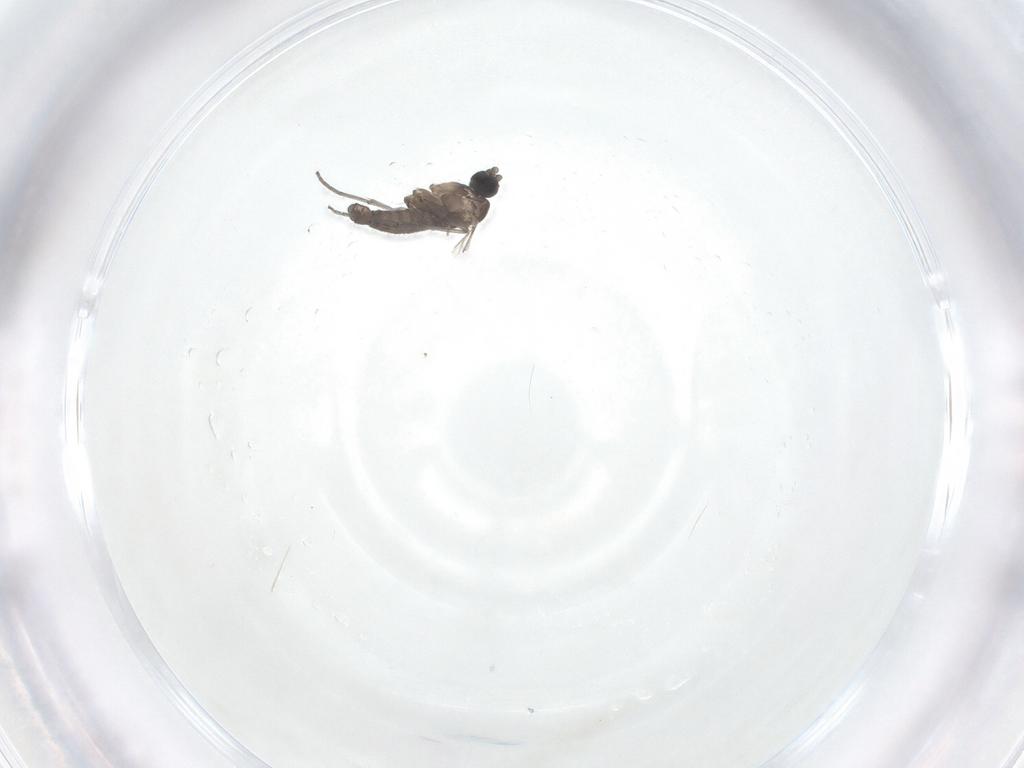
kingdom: Animalia
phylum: Arthropoda
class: Insecta
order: Diptera
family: Sciaridae
